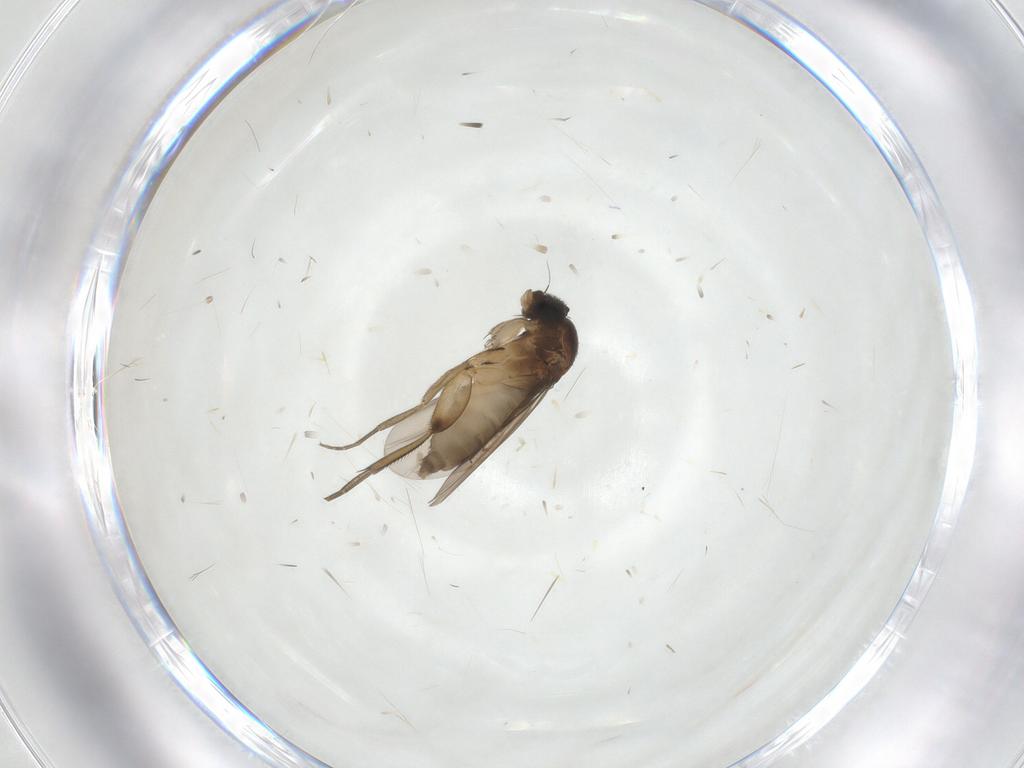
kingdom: Animalia
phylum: Arthropoda
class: Insecta
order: Diptera
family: Phoridae
